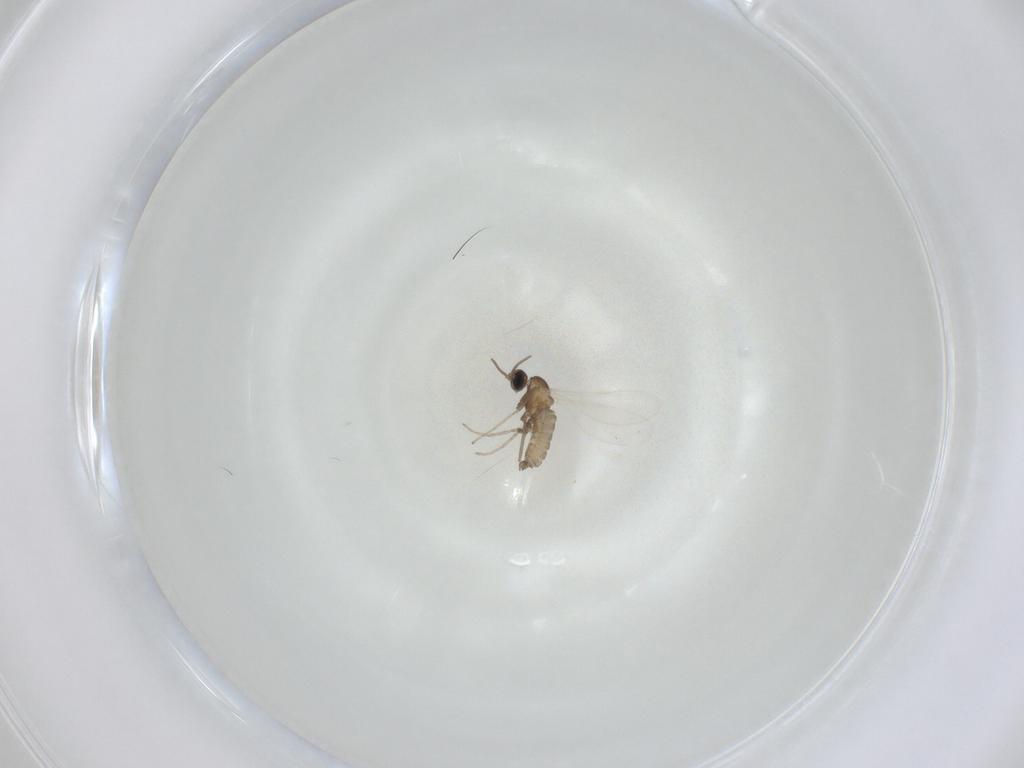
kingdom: Animalia
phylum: Arthropoda
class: Insecta
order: Diptera
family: Cecidomyiidae
